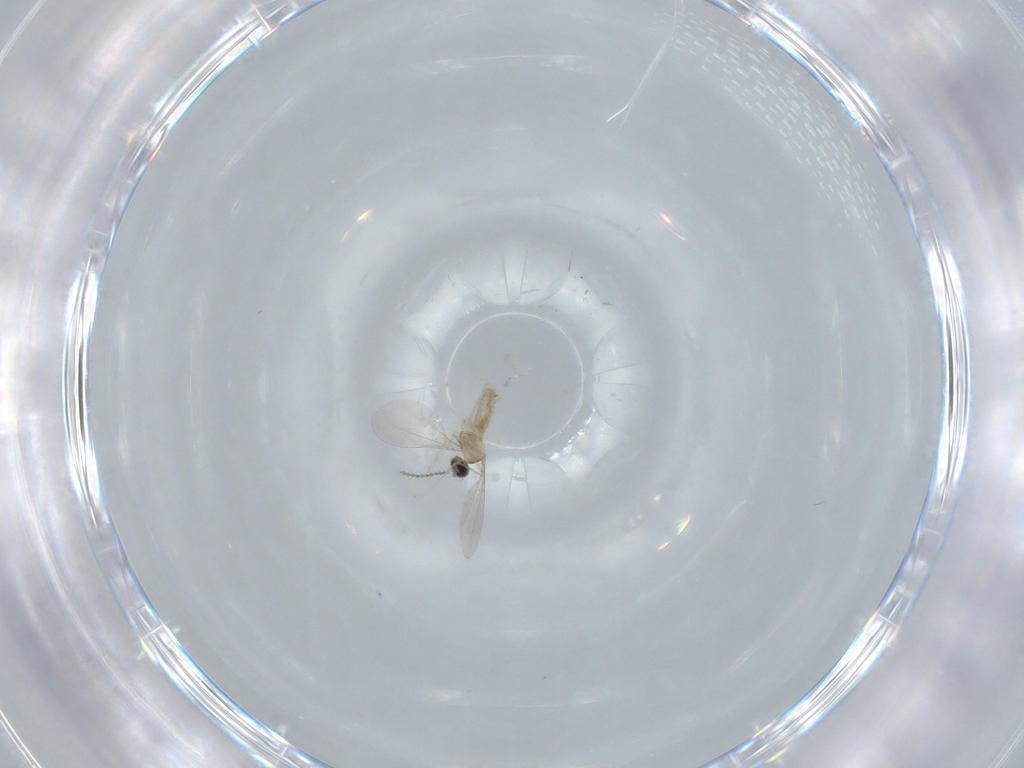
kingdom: Animalia
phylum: Arthropoda
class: Insecta
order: Diptera
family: Cecidomyiidae
